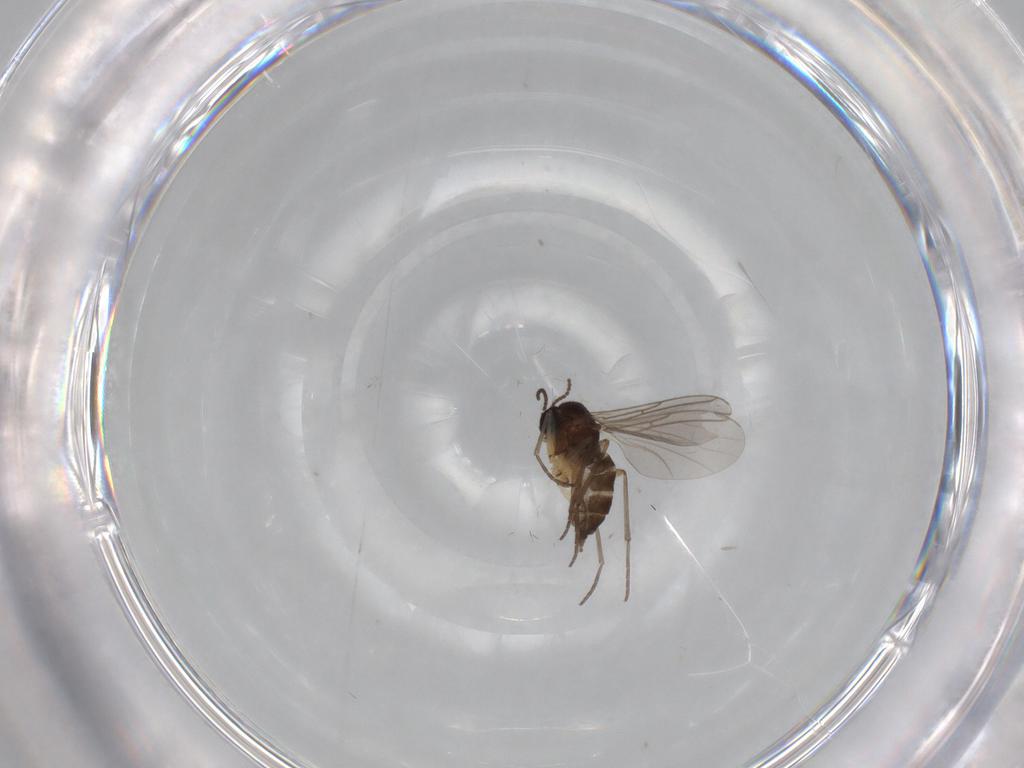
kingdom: Animalia
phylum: Arthropoda
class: Insecta
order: Diptera
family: Sciaridae
